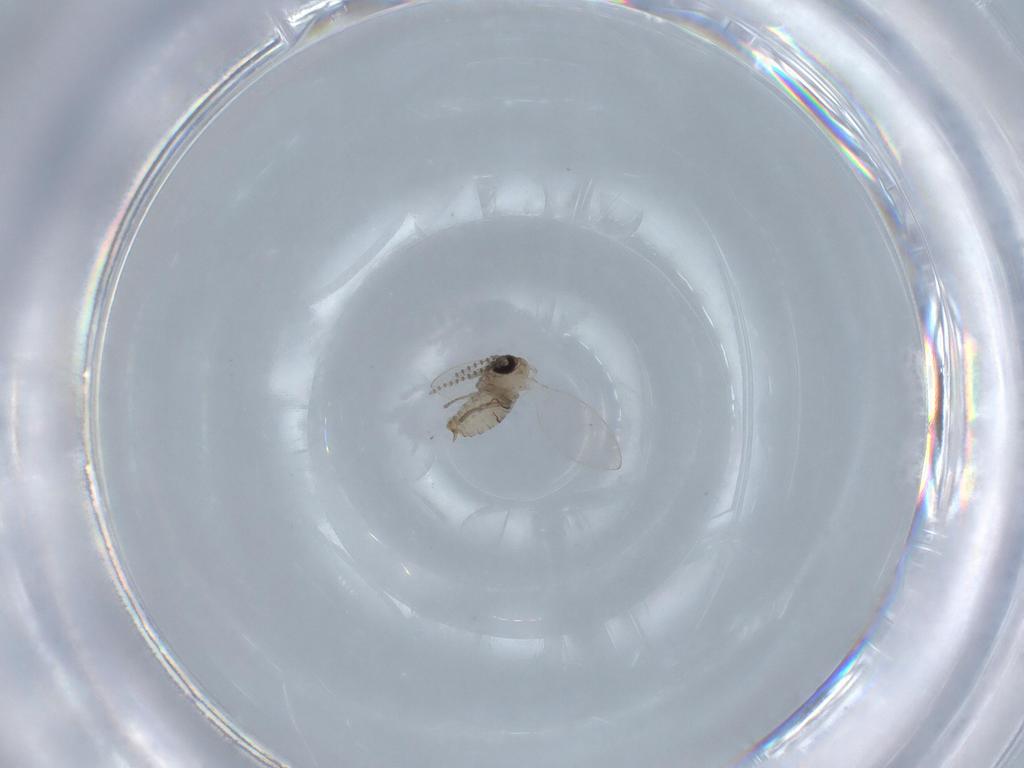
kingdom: Animalia
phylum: Arthropoda
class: Insecta
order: Diptera
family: Psychodidae
